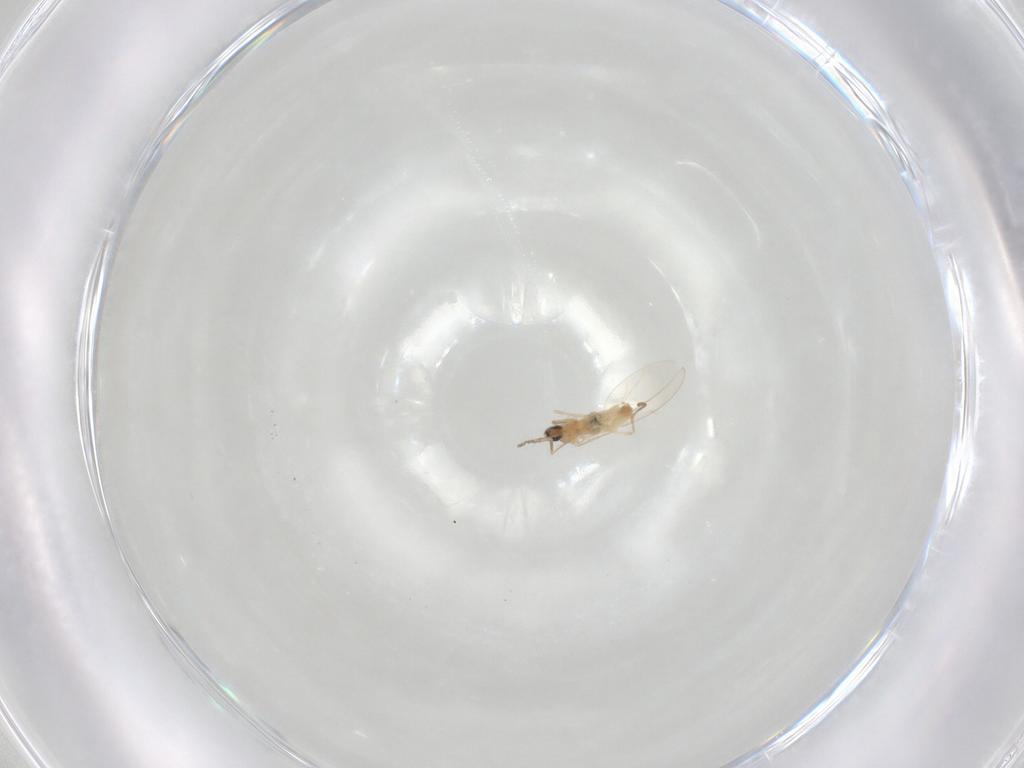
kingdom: Animalia
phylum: Arthropoda
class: Insecta
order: Diptera
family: Cecidomyiidae
